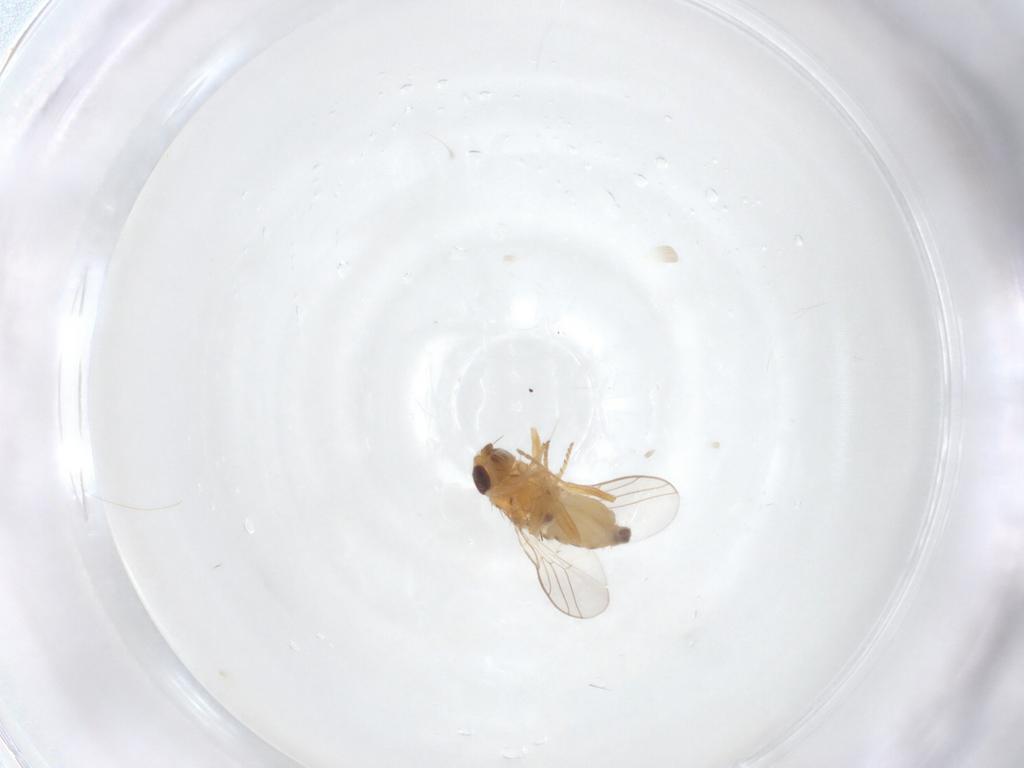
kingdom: Animalia
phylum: Arthropoda
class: Insecta
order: Diptera
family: Chloropidae
